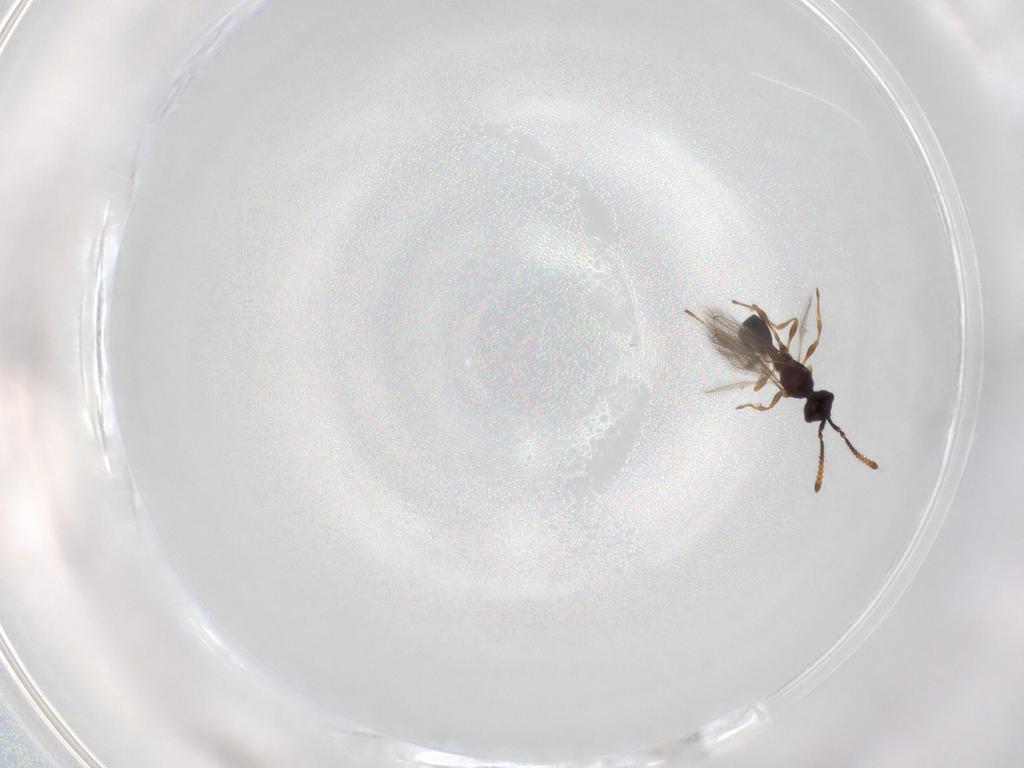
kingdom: Animalia
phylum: Arthropoda
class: Insecta
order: Hymenoptera
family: Diapriidae
